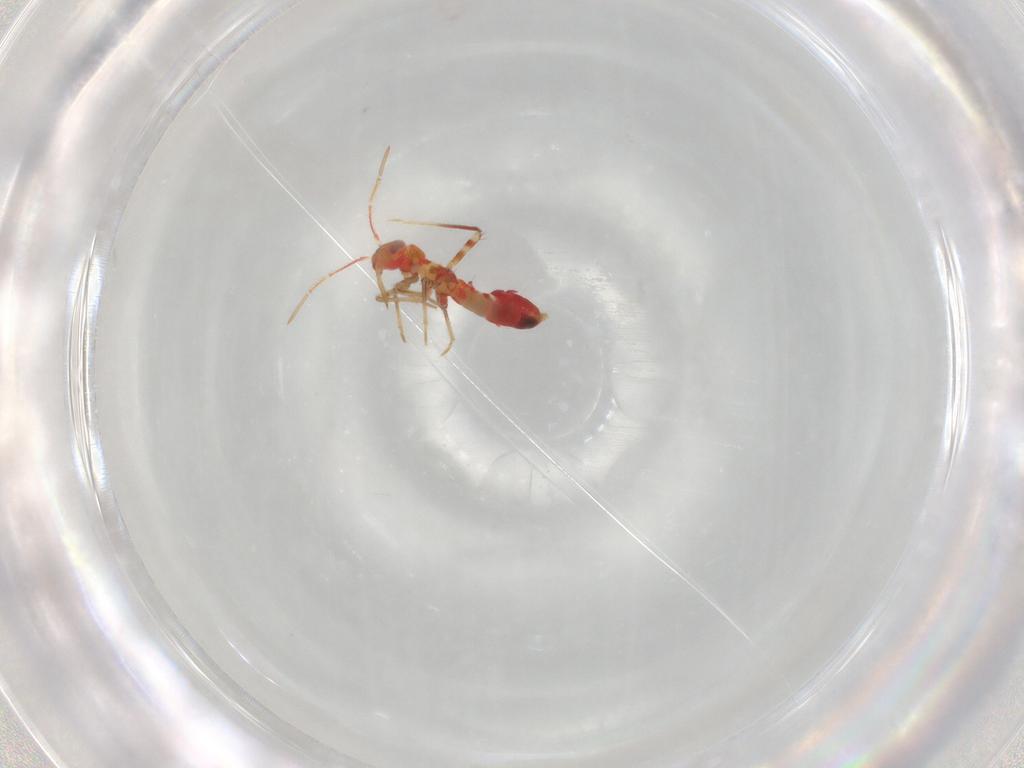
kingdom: Animalia
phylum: Arthropoda
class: Insecta
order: Hemiptera
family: Miridae
